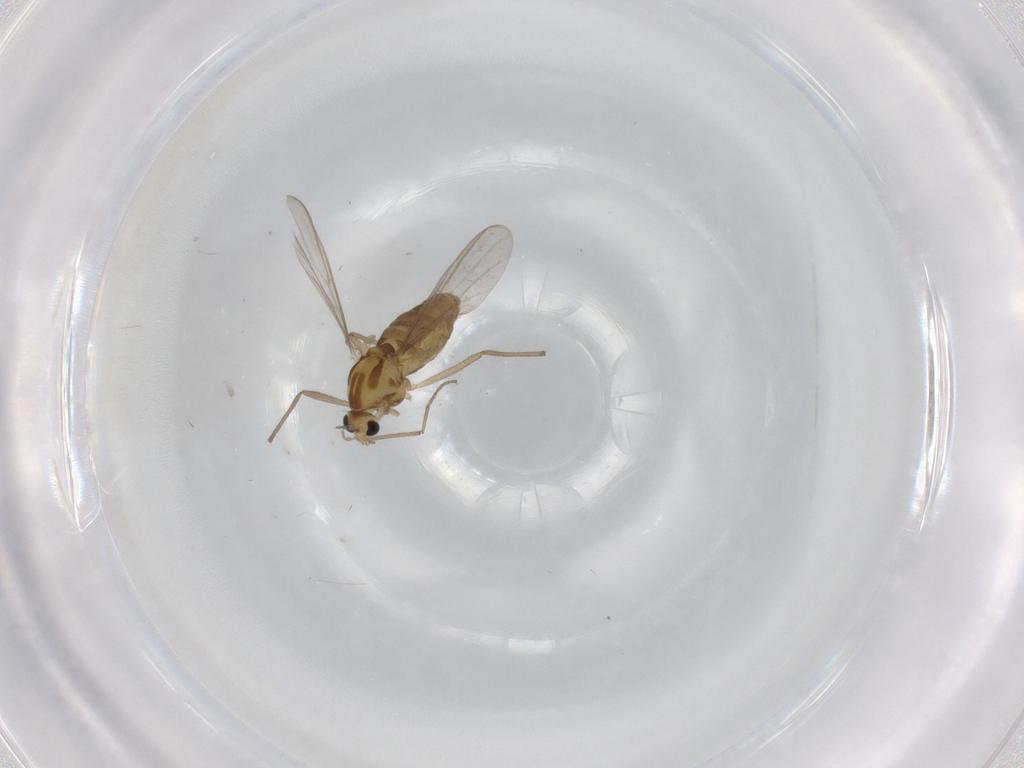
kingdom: Animalia
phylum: Arthropoda
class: Insecta
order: Diptera
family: Chironomidae
